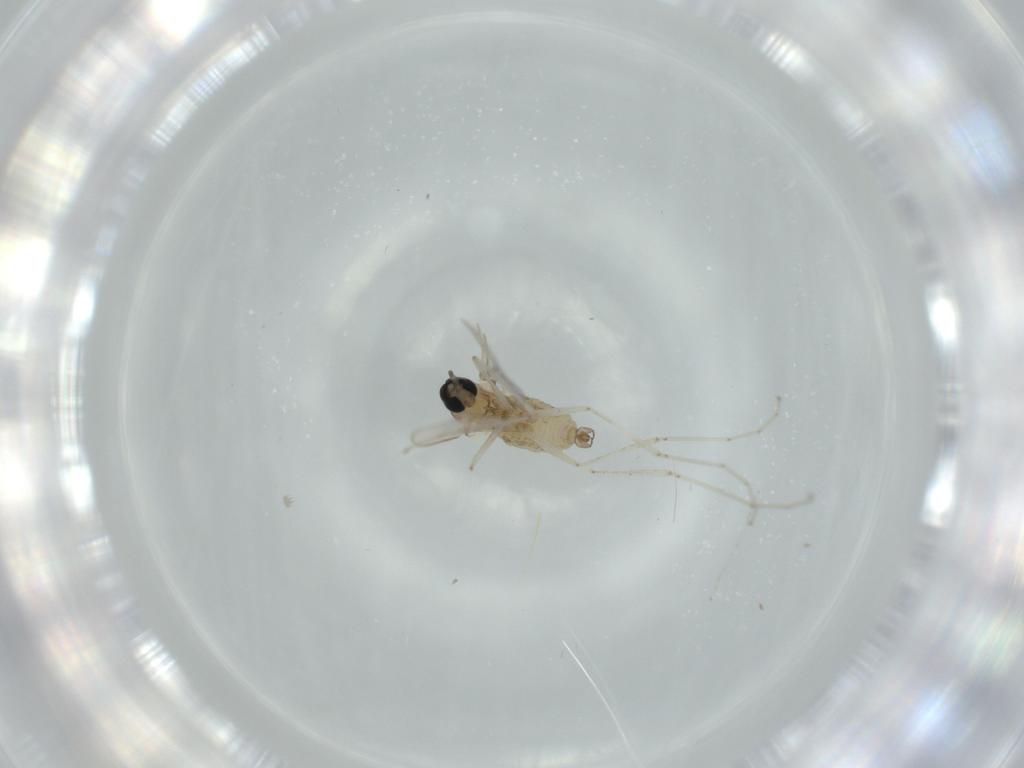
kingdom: Animalia
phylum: Arthropoda
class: Insecta
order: Diptera
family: Cecidomyiidae
